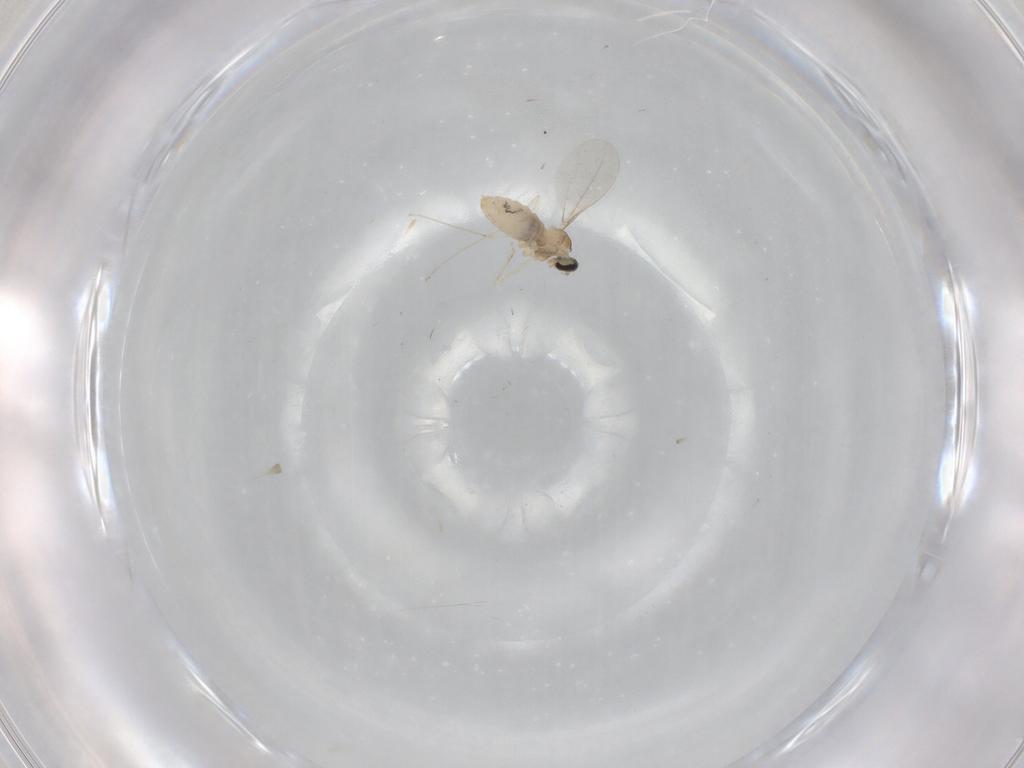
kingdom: Animalia
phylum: Arthropoda
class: Insecta
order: Diptera
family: Cecidomyiidae
